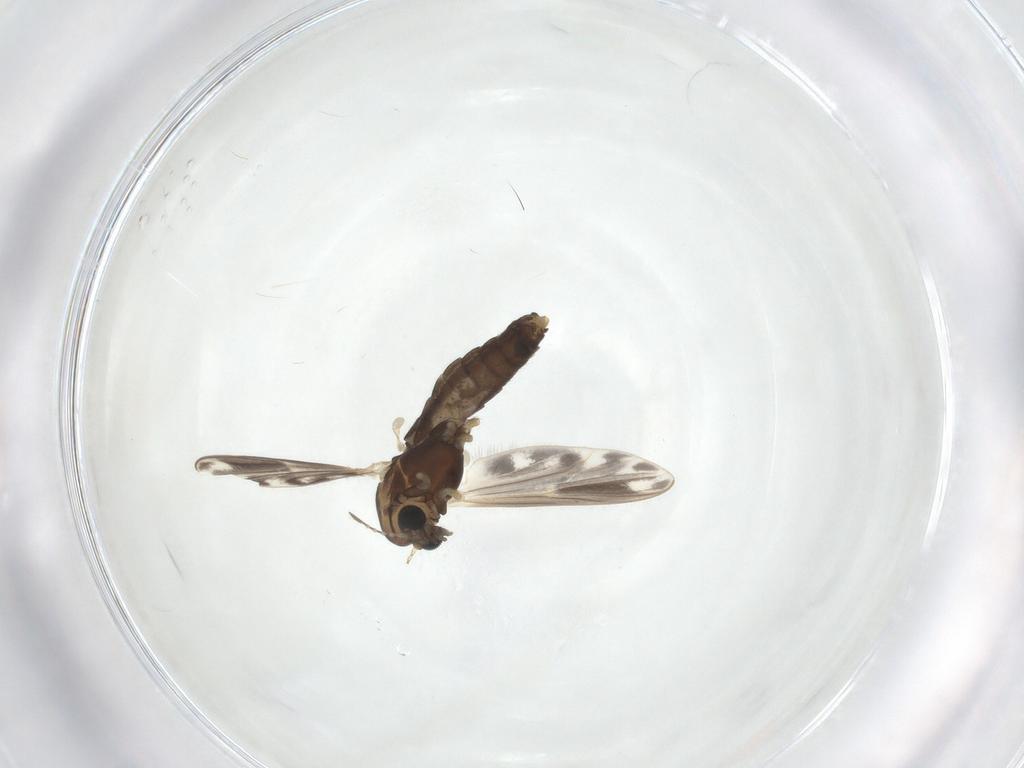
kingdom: Animalia
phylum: Arthropoda
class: Insecta
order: Diptera
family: Chironomidae
